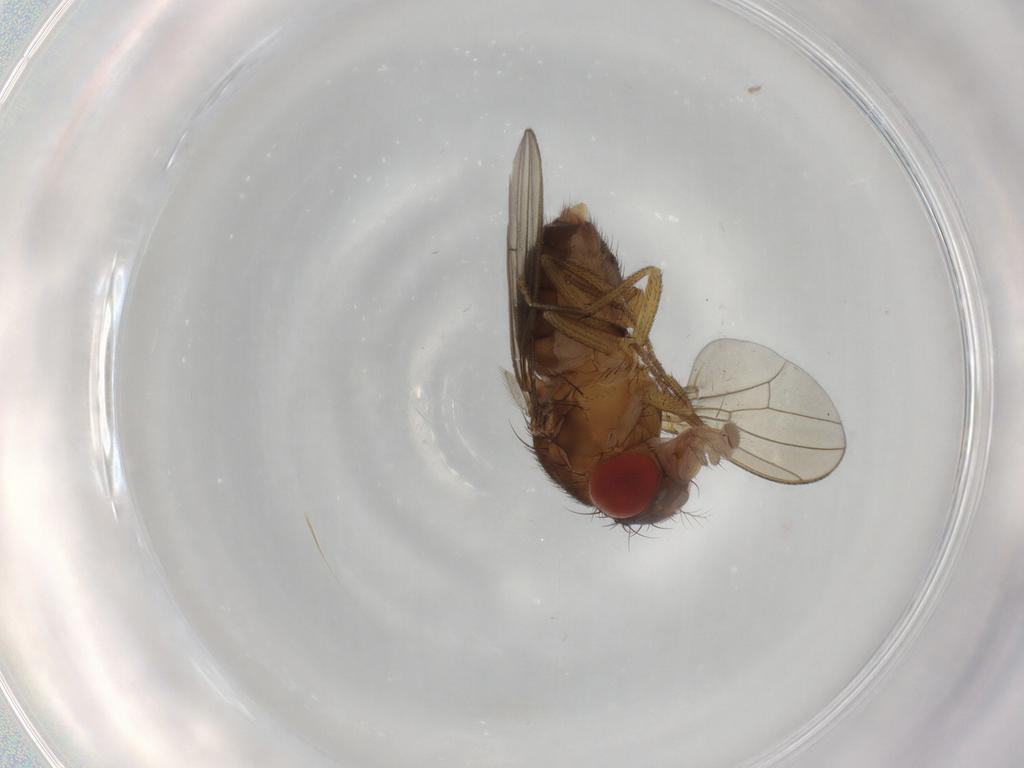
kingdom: Animalia
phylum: Arthropoda
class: Insecta
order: Diptera
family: Drosophilidae
